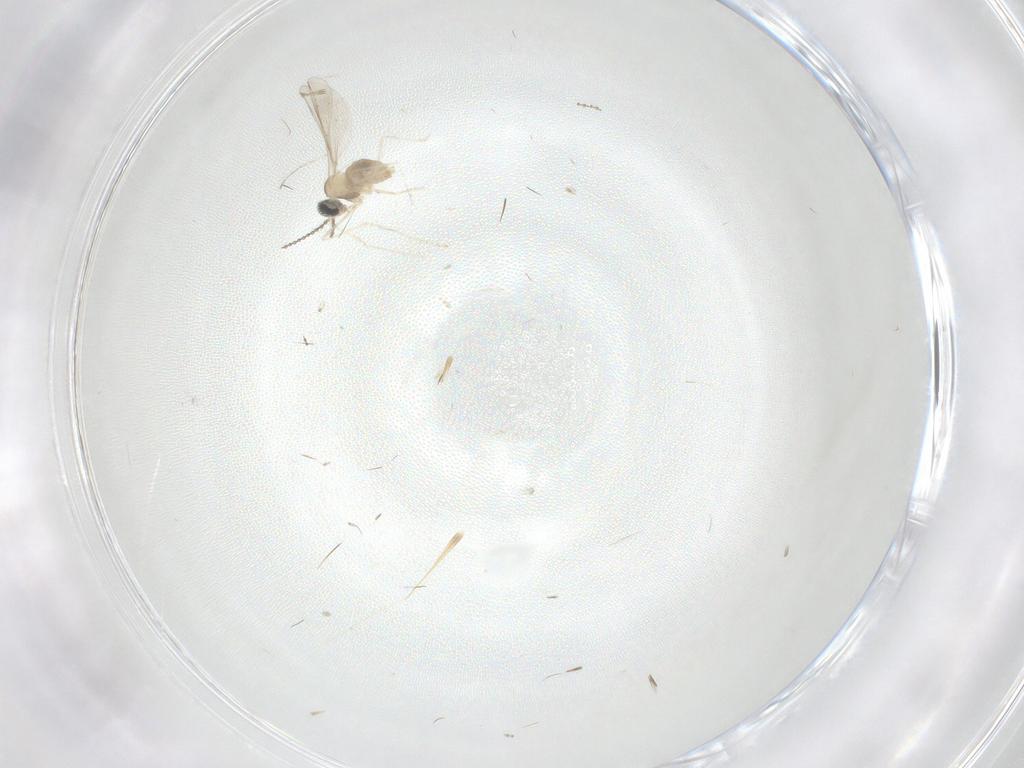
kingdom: Animalia
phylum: Arthropoda
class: Insecta
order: Diptera
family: Cecidomyiidae
